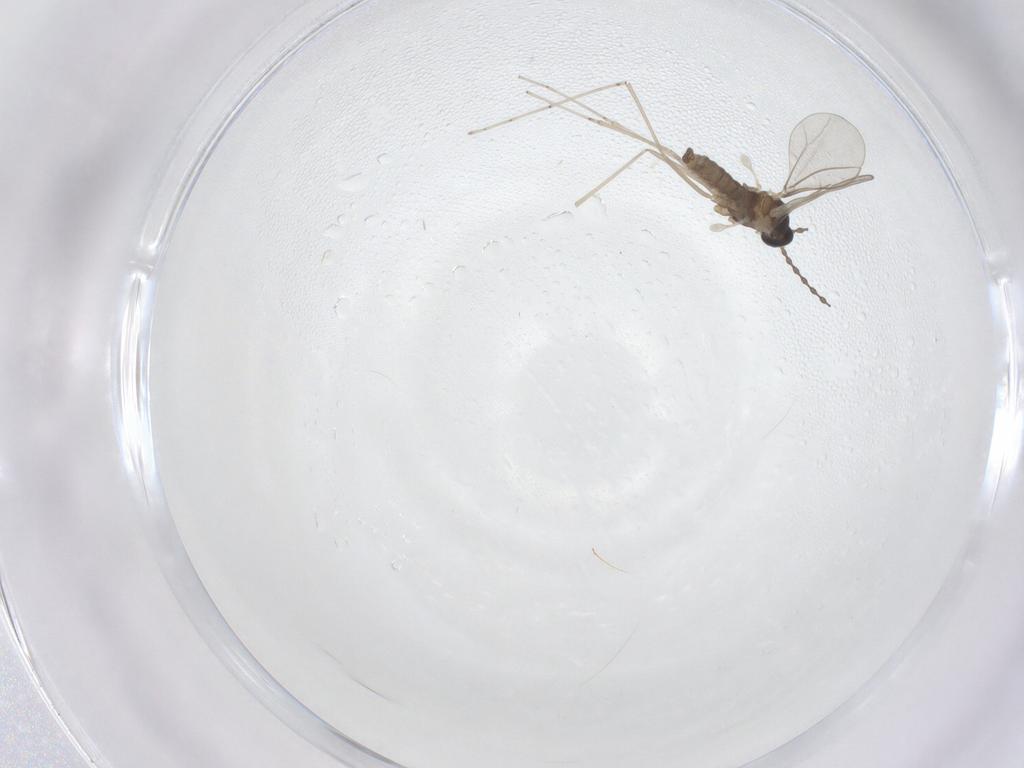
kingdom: Animalia
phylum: Arthropoda
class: Insecta
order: Diptera
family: Cecidomyiidae
